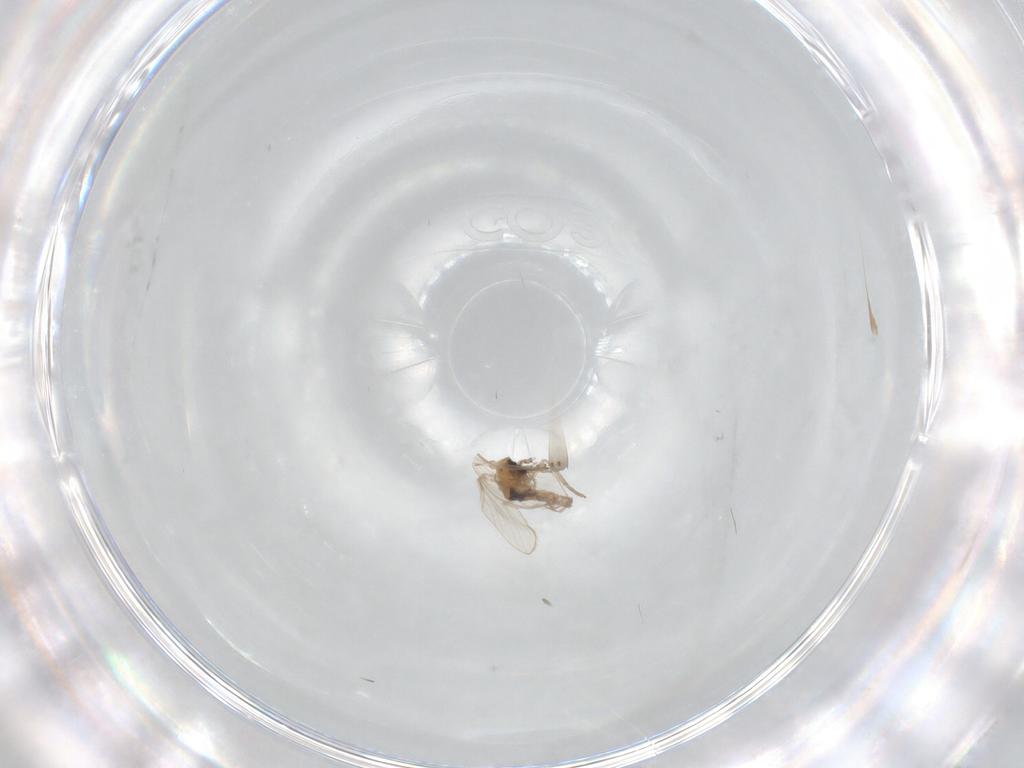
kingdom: Animalia
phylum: Arthropoda
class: Insecta
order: Diptera
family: Psychodidae
